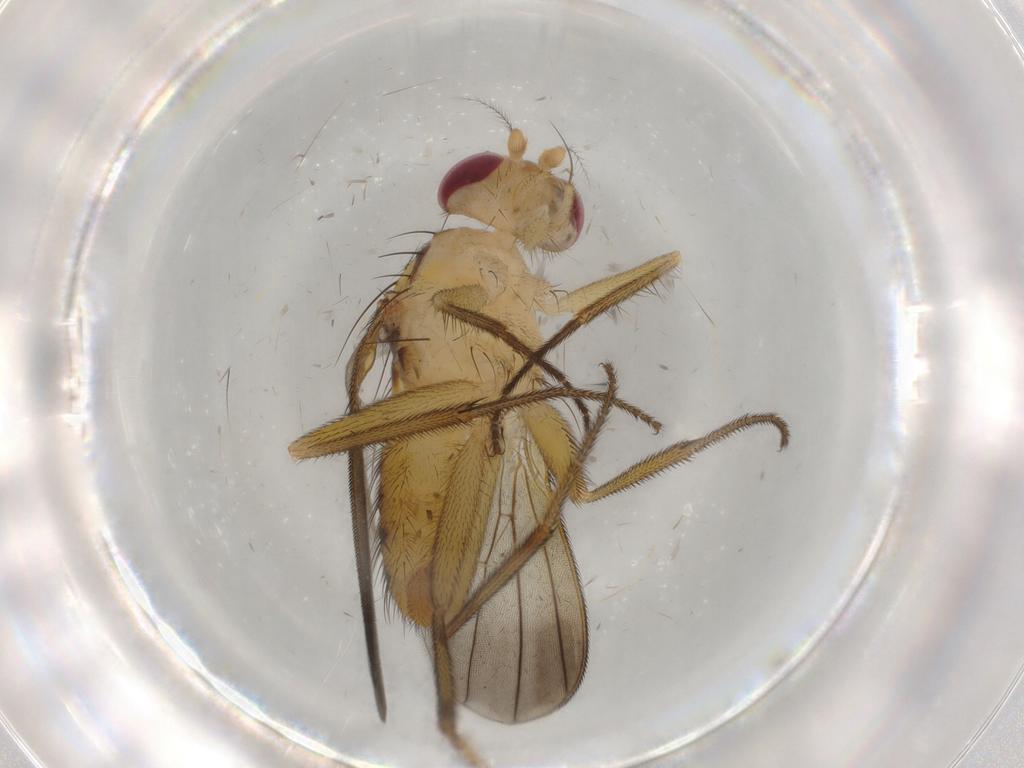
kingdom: Animalia
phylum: Arthropoda
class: Insecta
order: Diptera
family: Clusiidae
